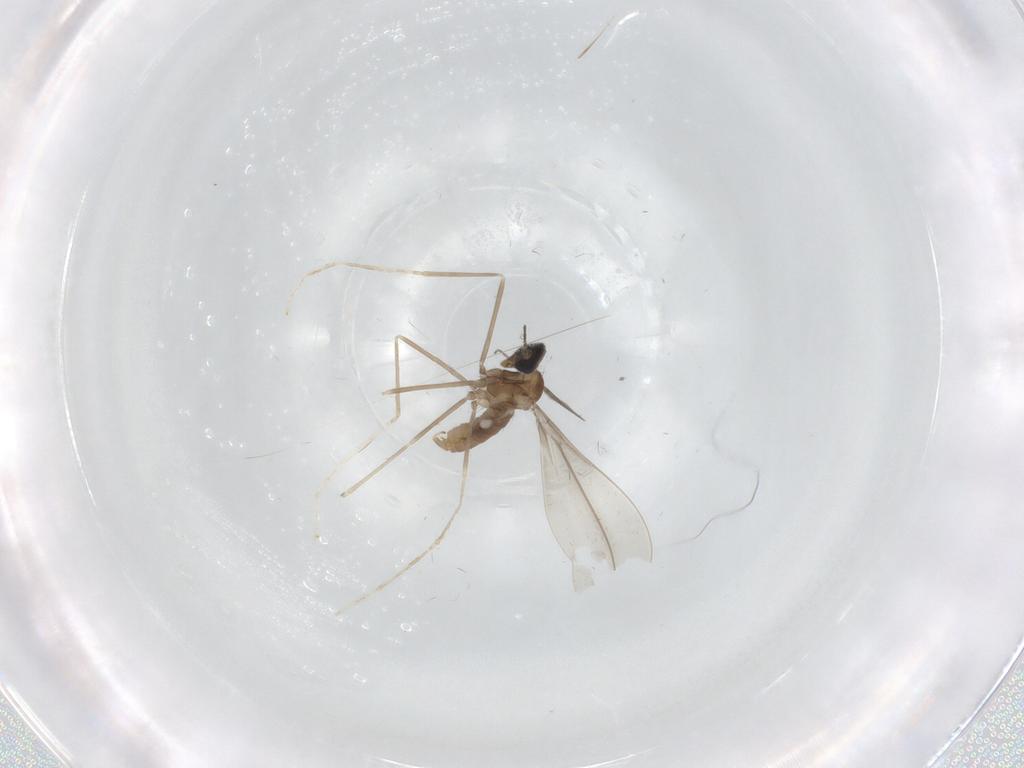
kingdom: Animalia
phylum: Arthropoda
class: Insecta
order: Diptera
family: Cecidomyiidae
